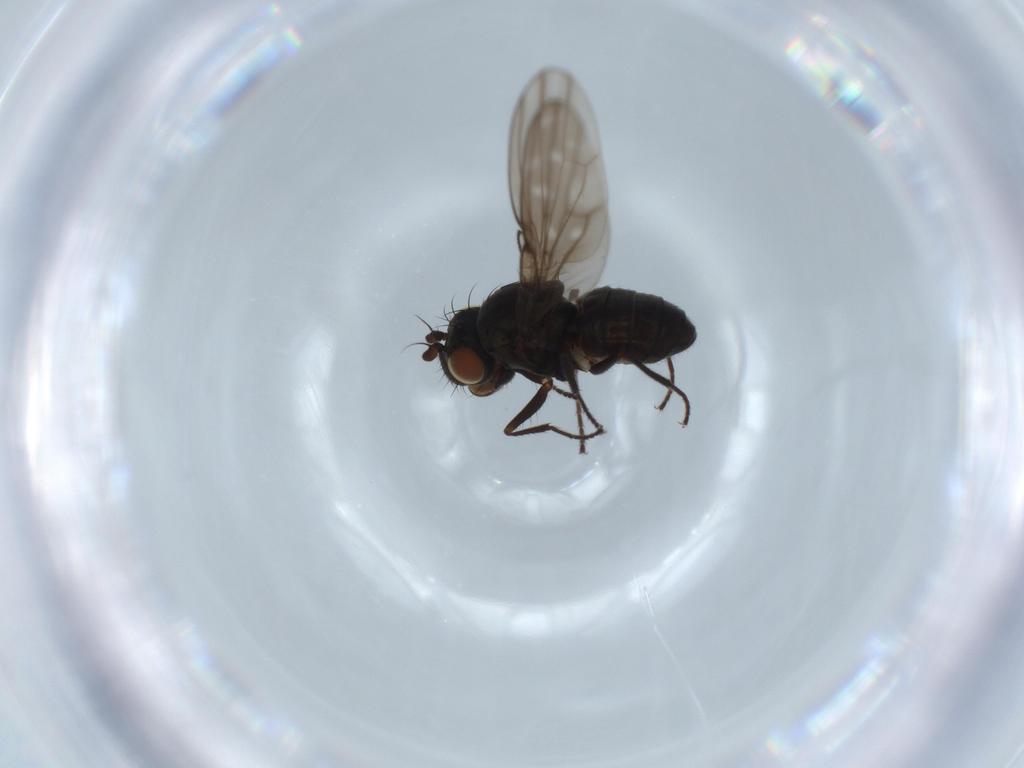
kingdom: Animalia
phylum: Arthropoda
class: Insecta
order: Diptera
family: Ephydridae
